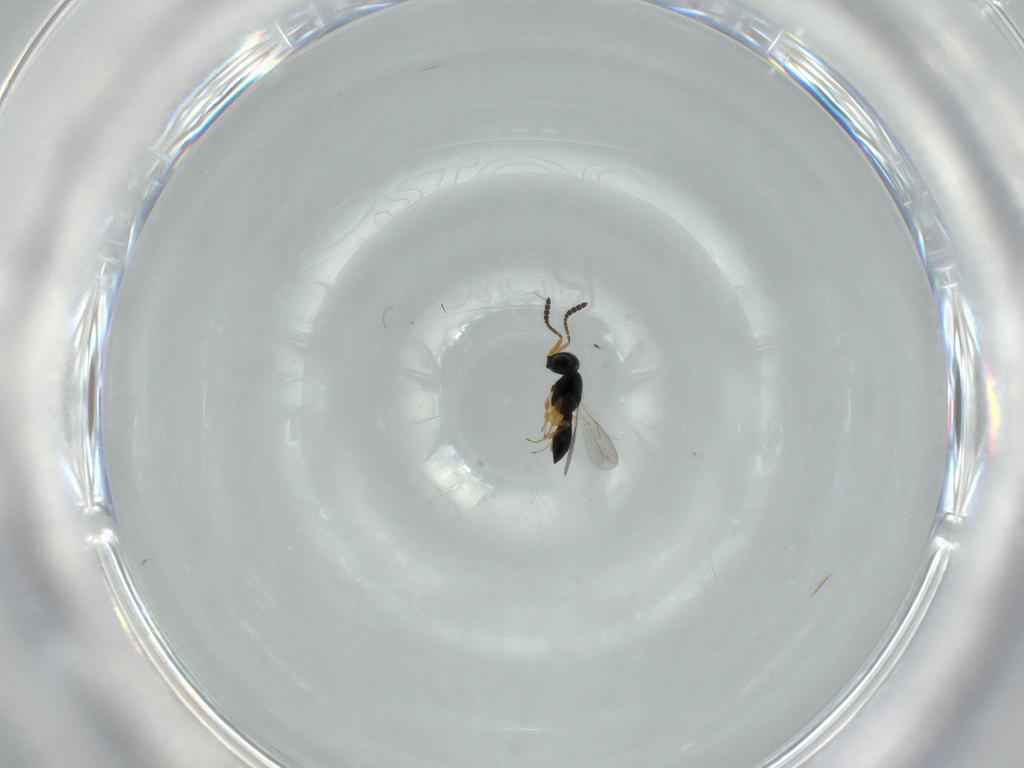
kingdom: Animalia
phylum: Arthropoda
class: Insecta
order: Hymenoptera
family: Scelionidae
